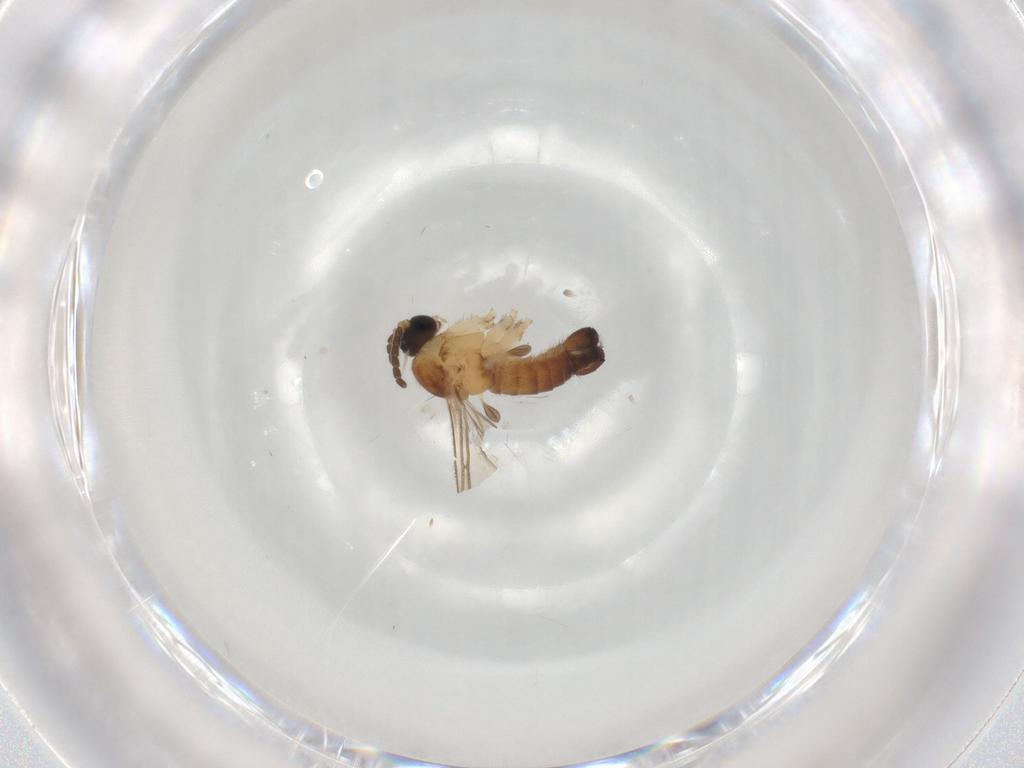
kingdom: Animalia
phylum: Arthropoda
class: Insecta
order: Diptera
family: Sciaridae
